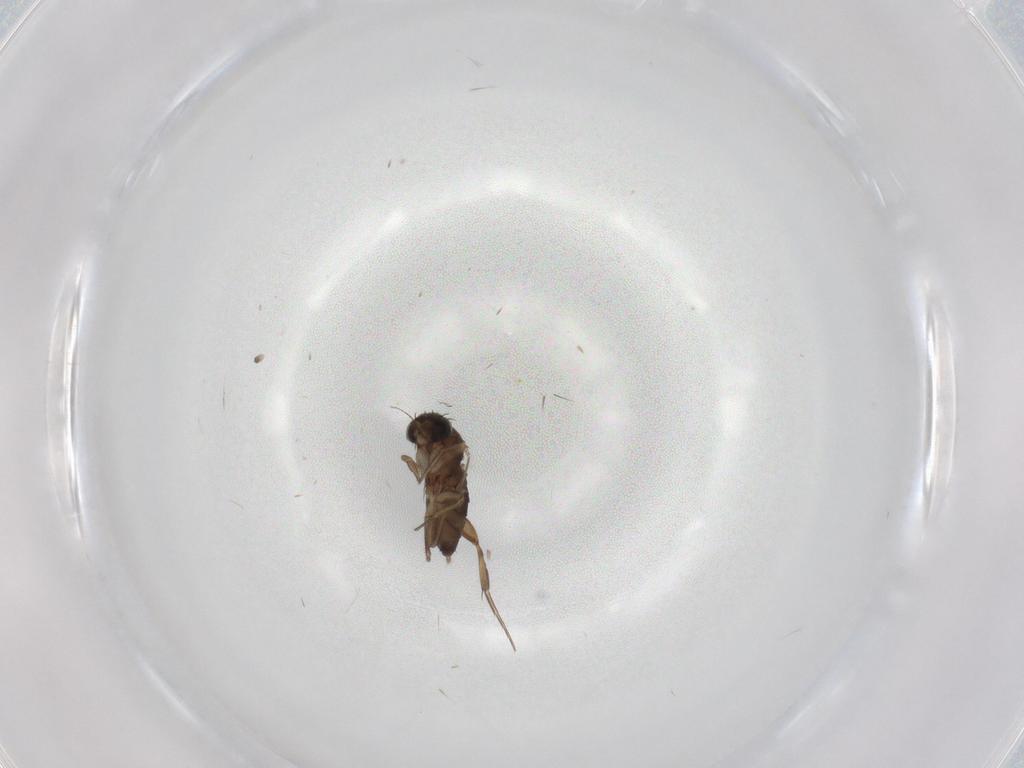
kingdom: Animalia
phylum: Arthropoda
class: Insecta
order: Diptera
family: Phoridae
